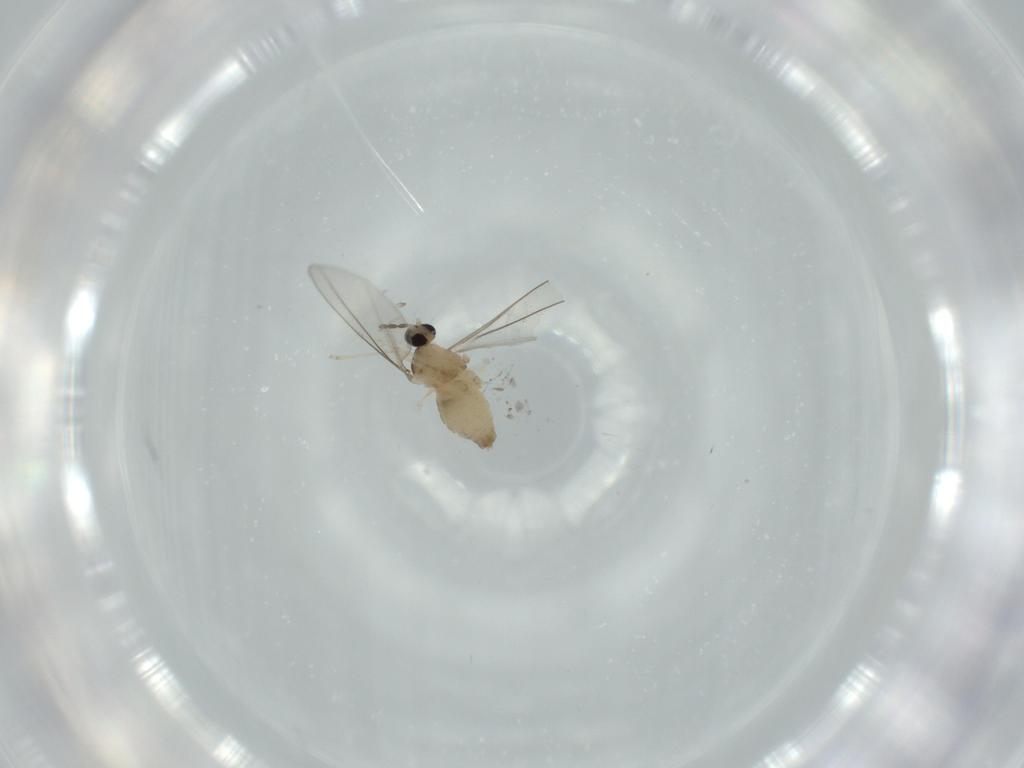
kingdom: Animalia
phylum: Arthropoda
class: Insecta
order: Diptera
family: Cecidomyiidae
